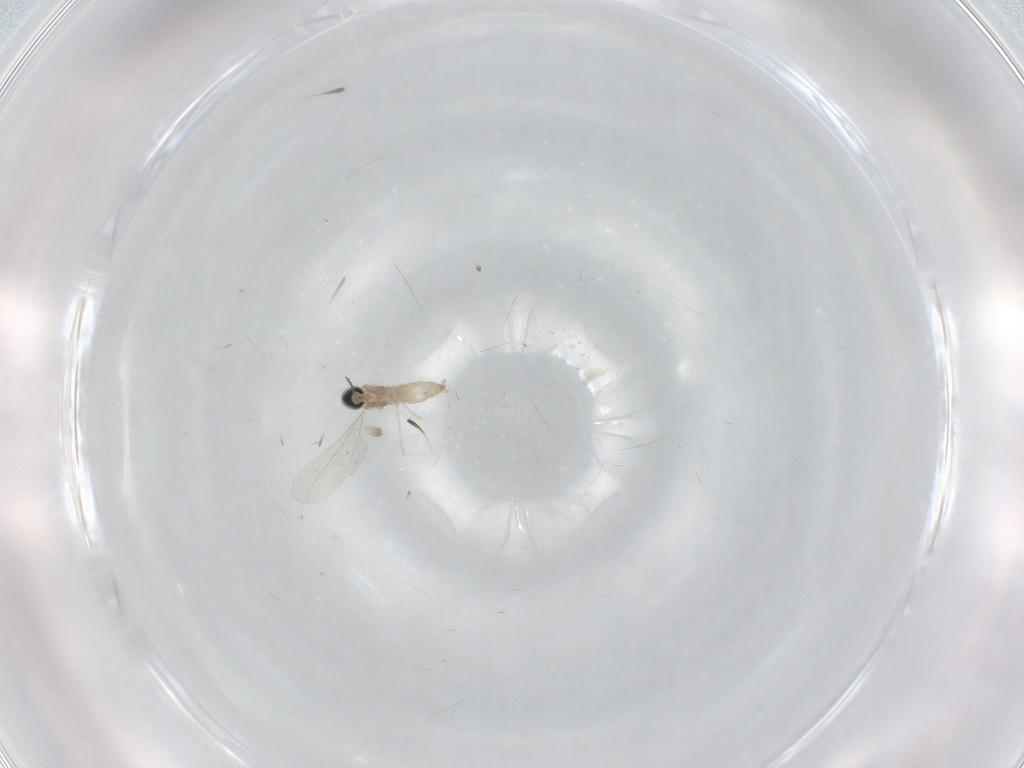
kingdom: Animalia
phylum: Arthropoda
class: Insecta
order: Diptera
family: Cecidomyiidae
